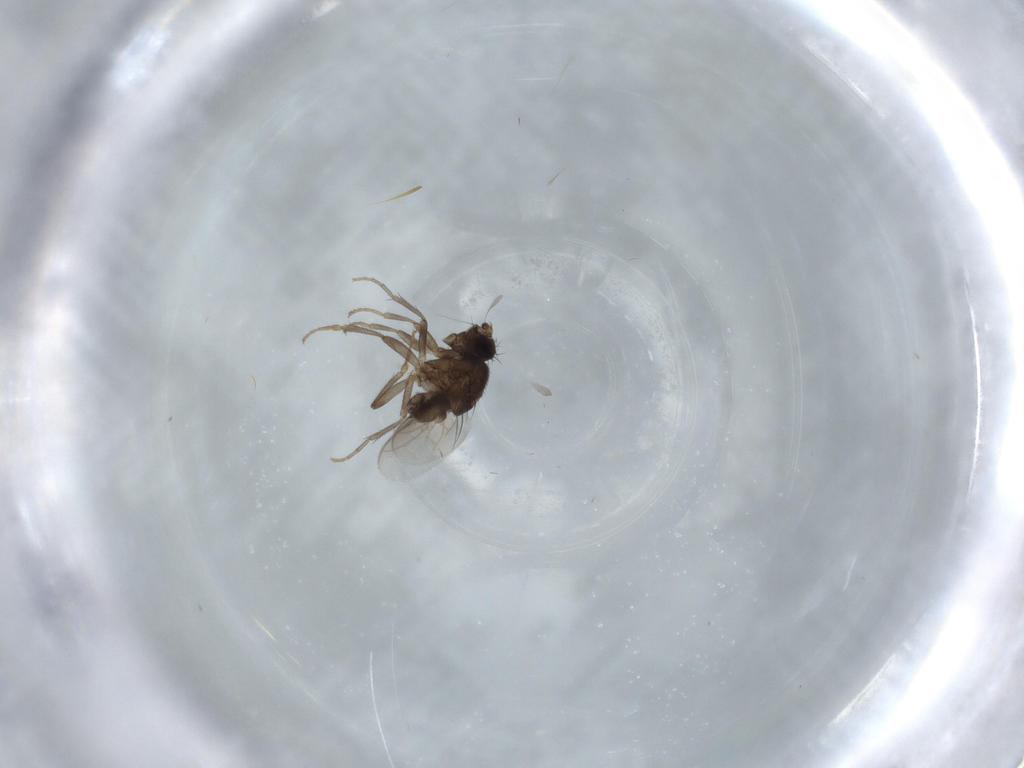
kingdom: Animalia
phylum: Arthropoda
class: Insecta
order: Diptera
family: Sphaeroceridae
